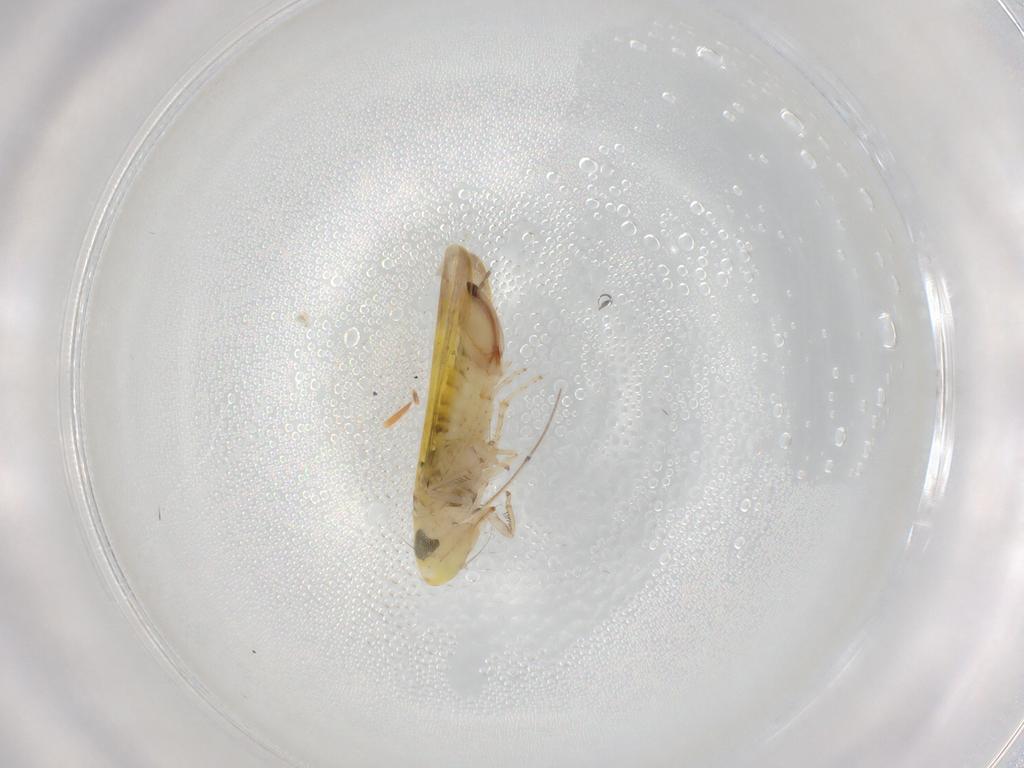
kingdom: Animalia
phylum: Arthropoda
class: Insecta
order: Hemiptera
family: Cicadellidae
